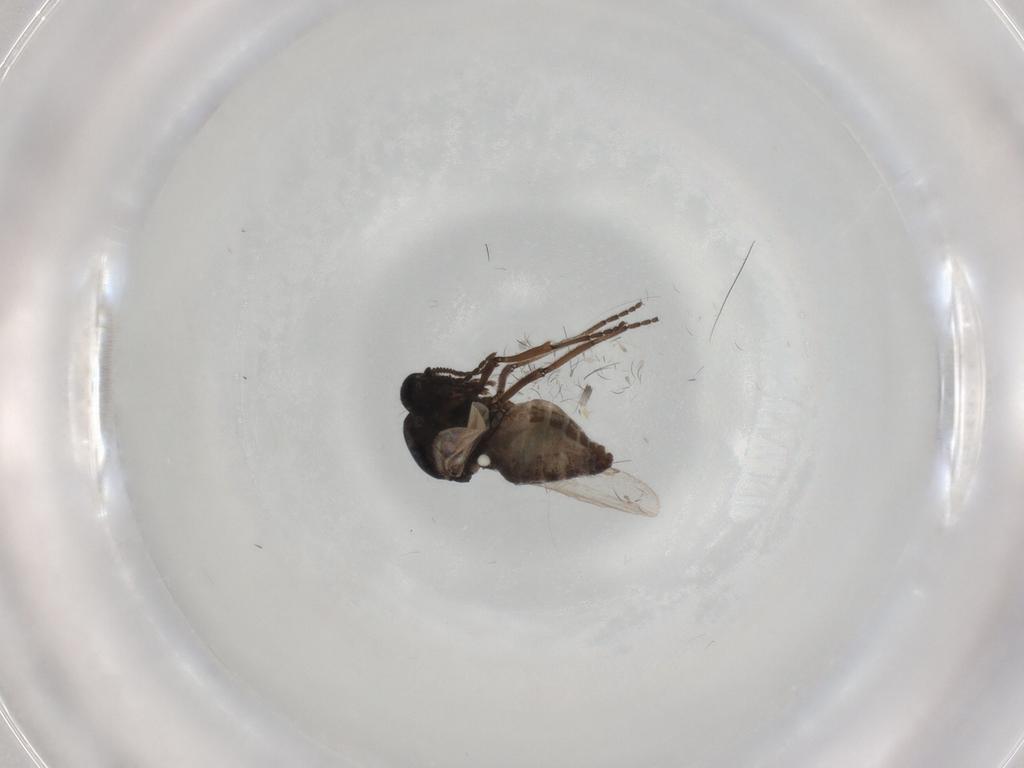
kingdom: Animalia
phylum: Arthropoda
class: Insecta
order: Diptera
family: Ceratopogonidae
